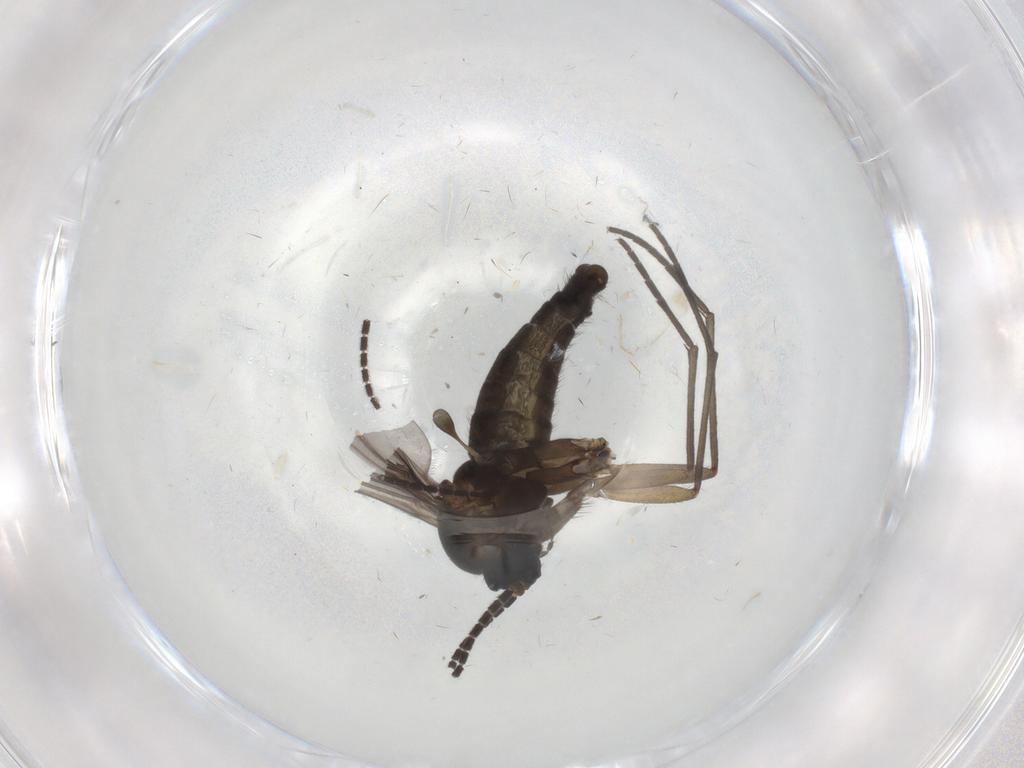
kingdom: Animalia
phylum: Arthropoda
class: Insecta
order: Diptera
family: Sciaridae
